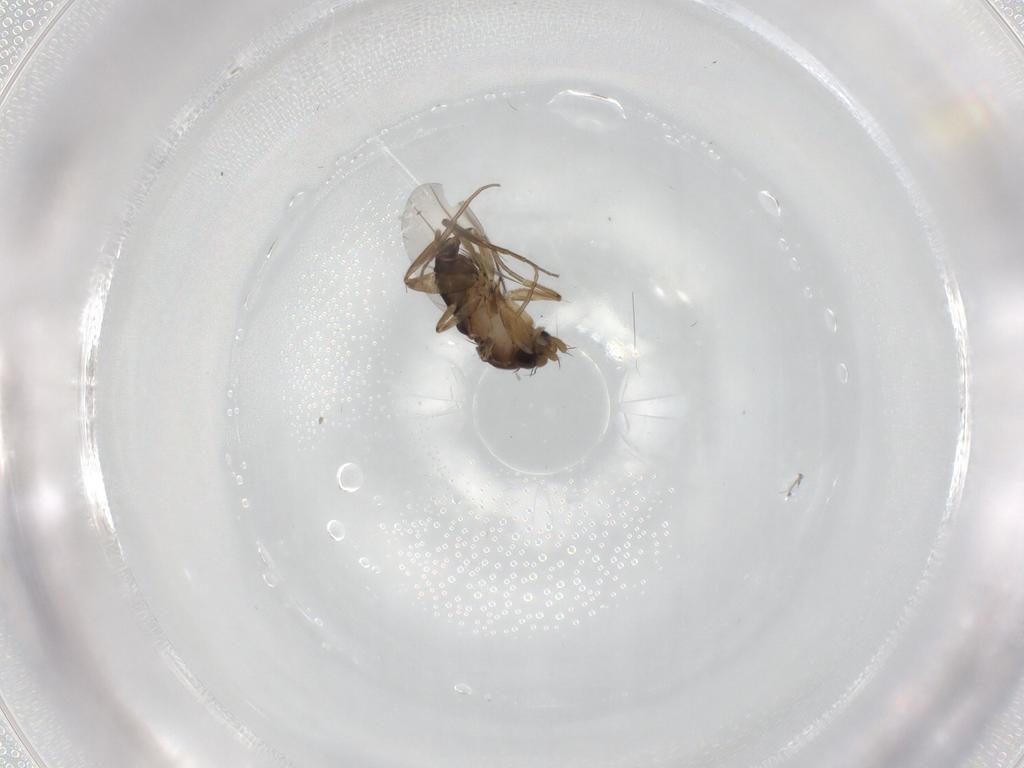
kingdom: Animalia
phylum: Arthropoda
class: Insecta
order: Diptera
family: Phoridae
